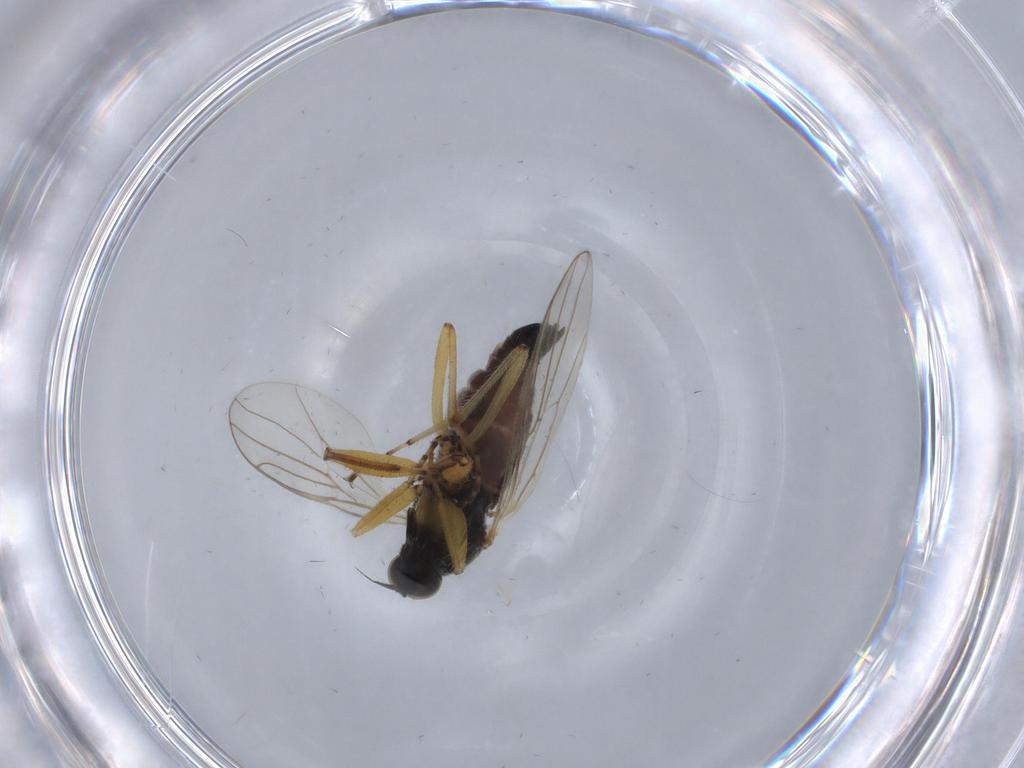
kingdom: Animalia
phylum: Arthropoda
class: Insecta
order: Diptera
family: Hybotidae
